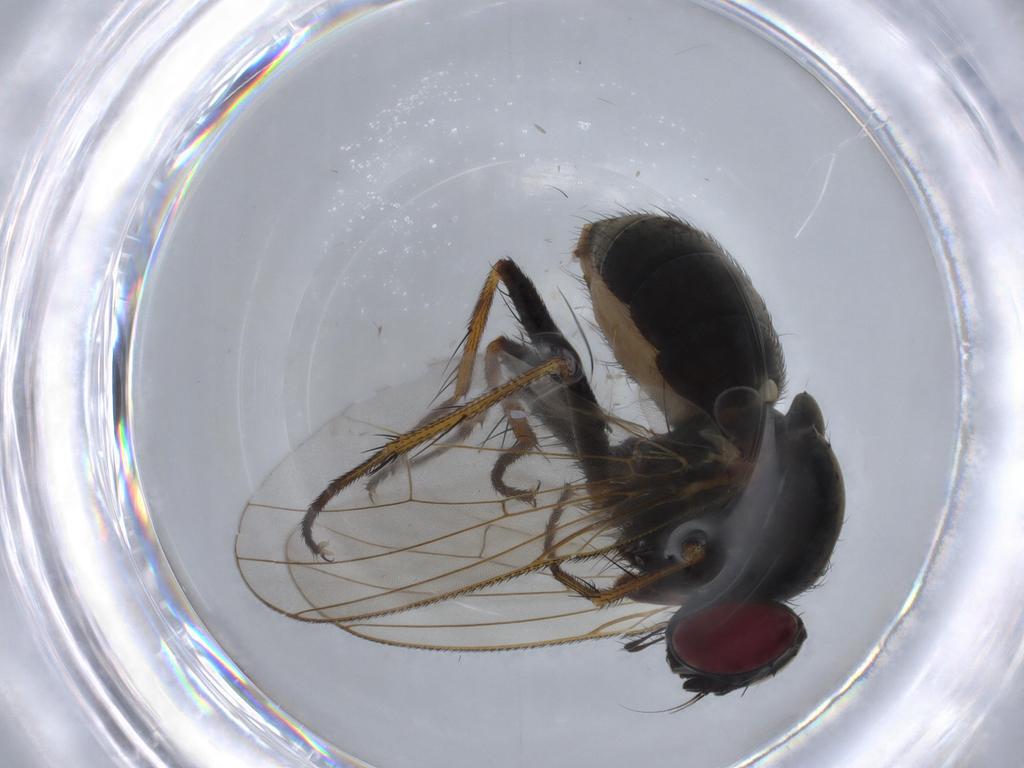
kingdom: Animalia
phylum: Arthropoda
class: Insecta
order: Diptera
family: Muscidae
